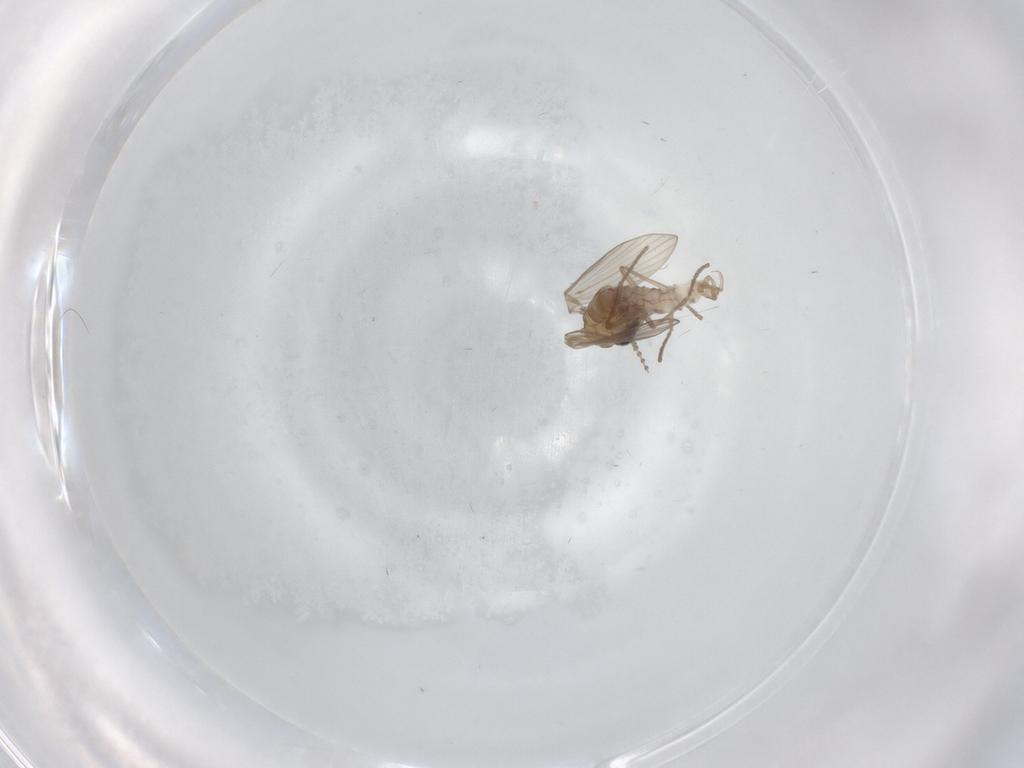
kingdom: Animalia
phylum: Arthropoda
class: Insecta
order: Diptera
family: Psychodidae
